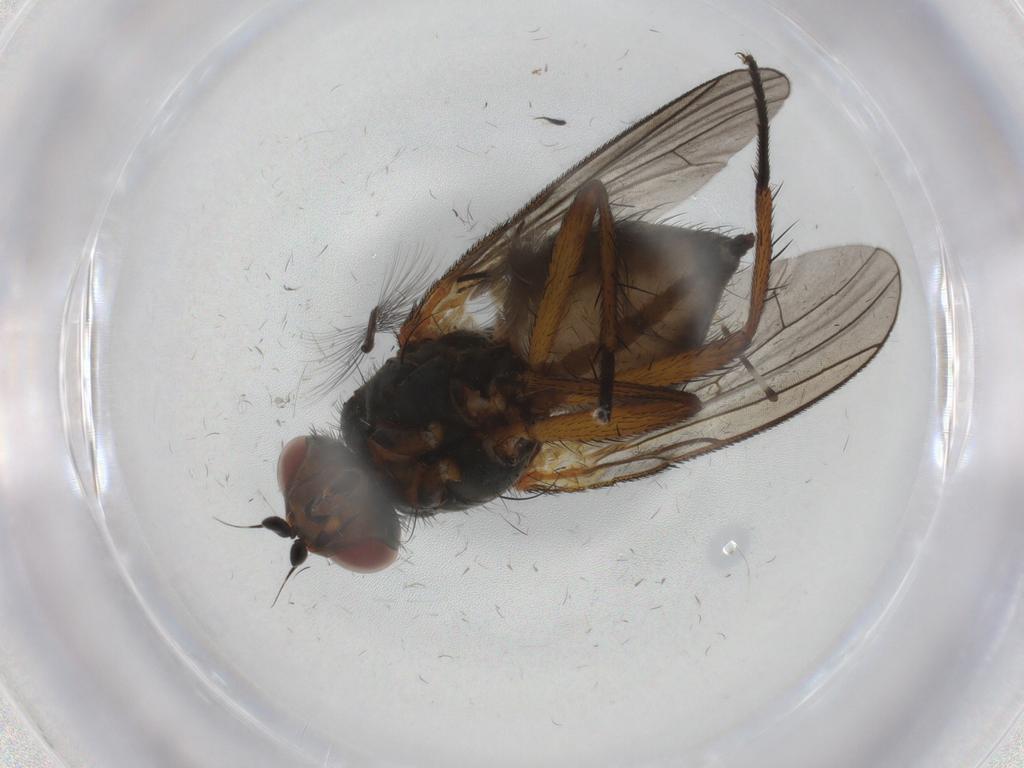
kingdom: Animalia
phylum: Arthropoda
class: Insecta
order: Diptera
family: Anthomyiidae
